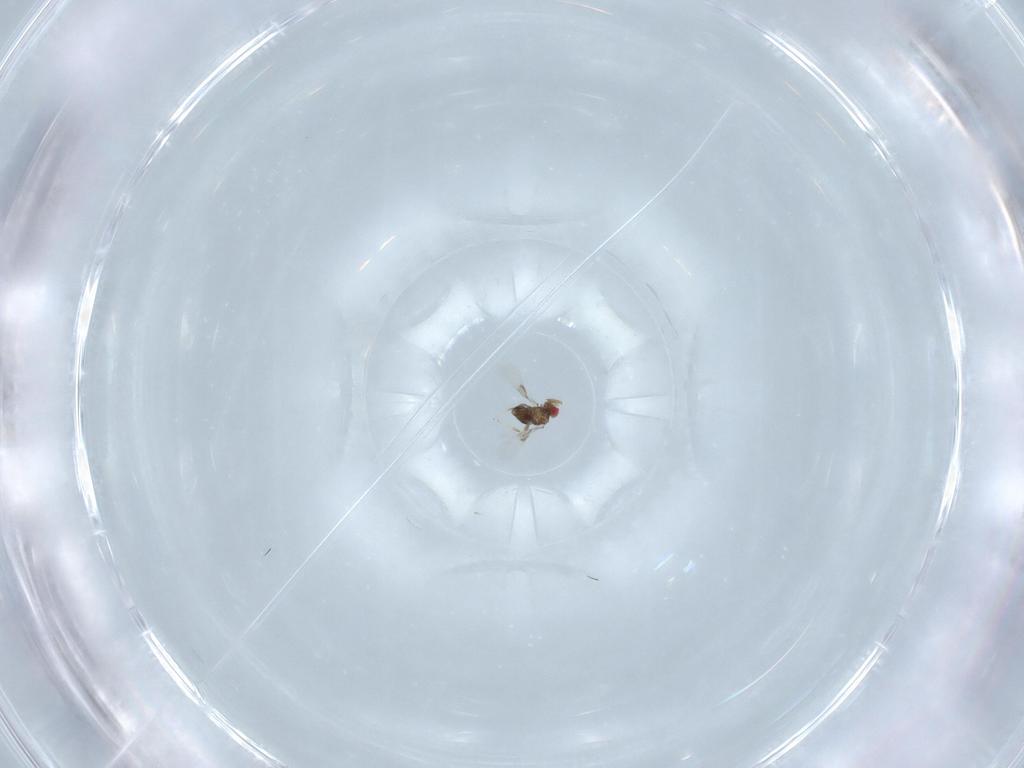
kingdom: Animalia
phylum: Arthropoda
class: Insecta
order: Hymenoptera
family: Trichogrammatidae
